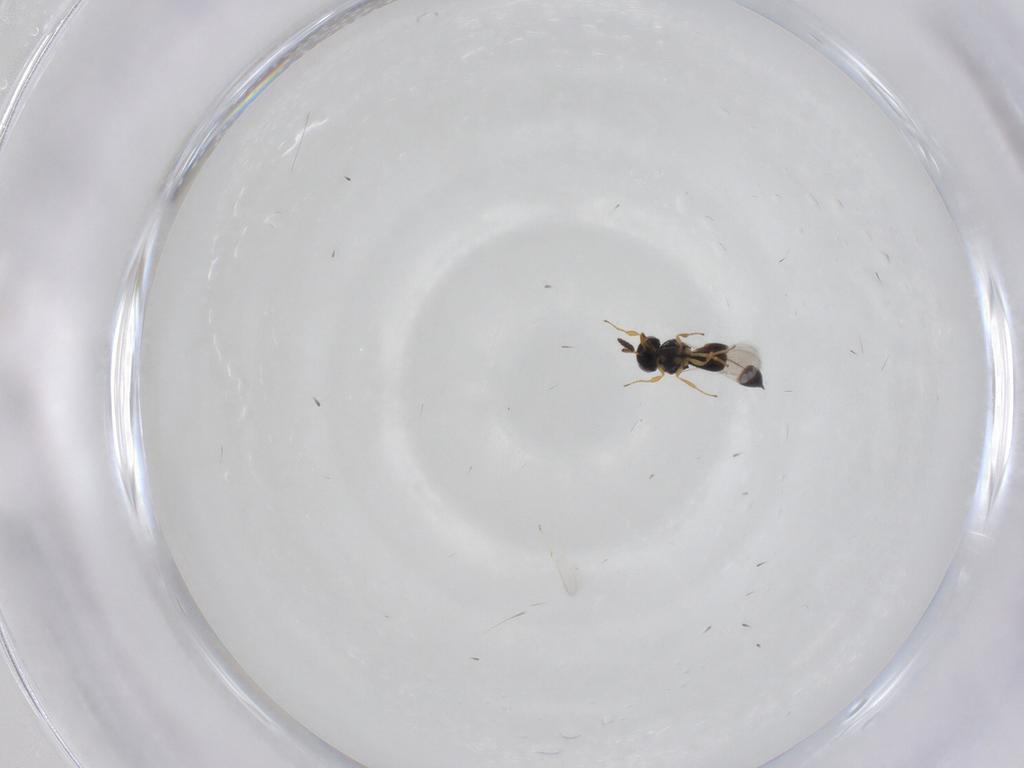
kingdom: Animalia
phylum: Arthropoda
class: Insecta
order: Hymenoptera
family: Scelionidae
